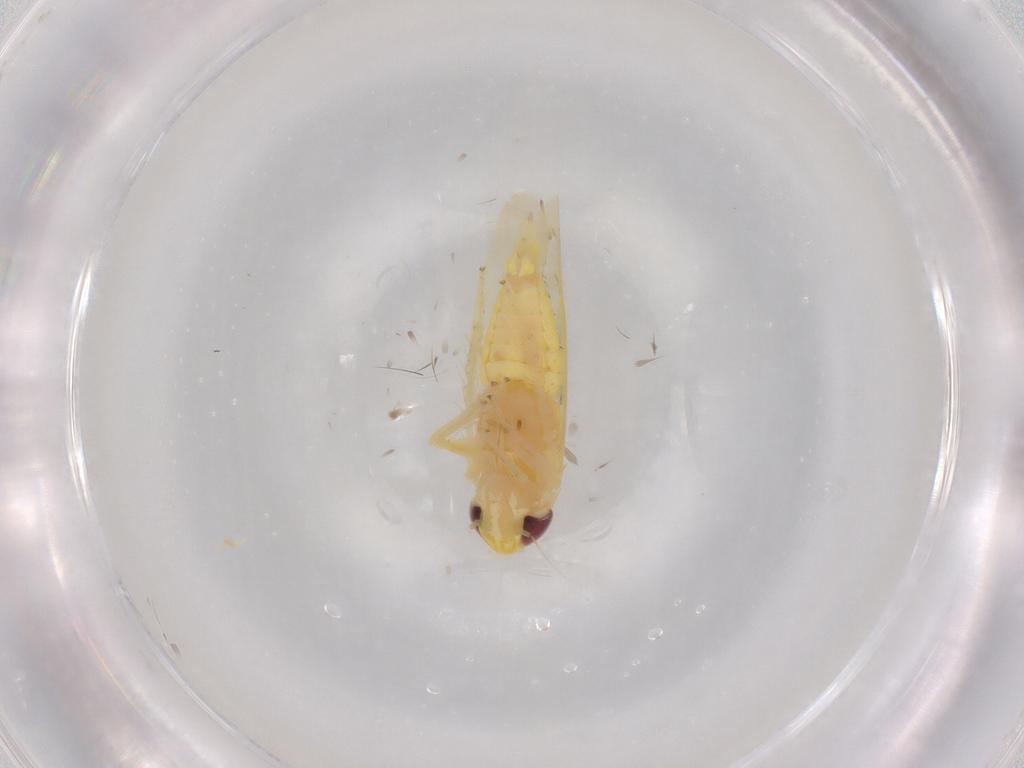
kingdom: Animalia
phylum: Arthropoda
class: Insecta
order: Hemiptera
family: Cicadellidae
